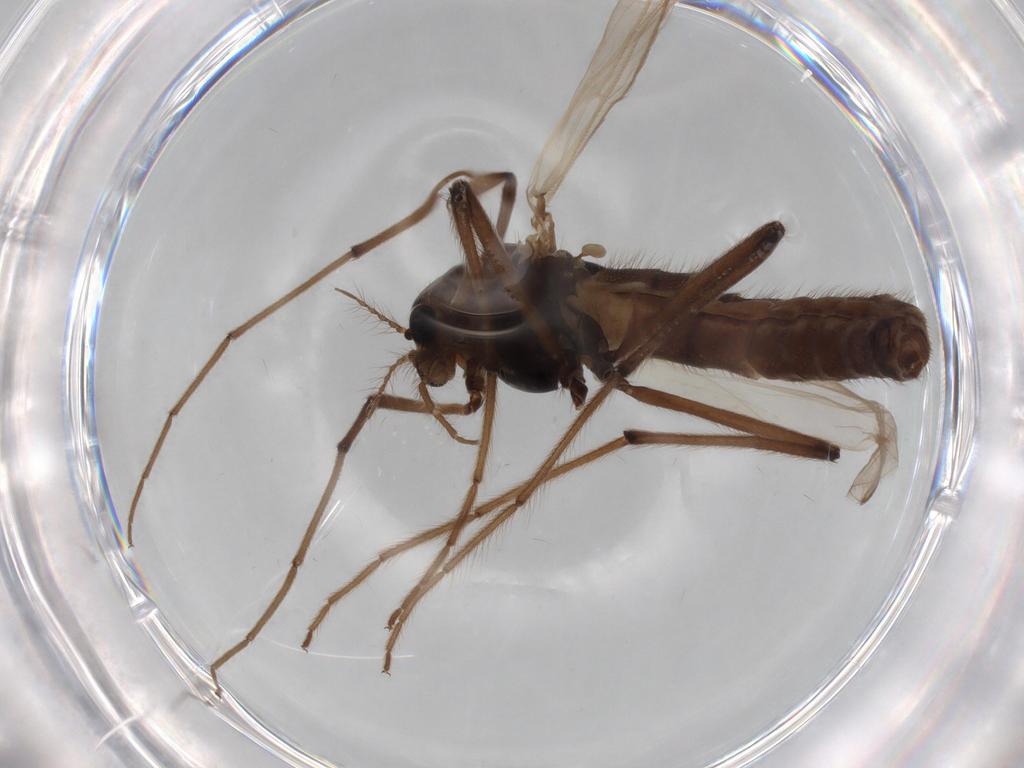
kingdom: Animalia
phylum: Arthropoda
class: Insecta
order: Diptera
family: Chironomidae
